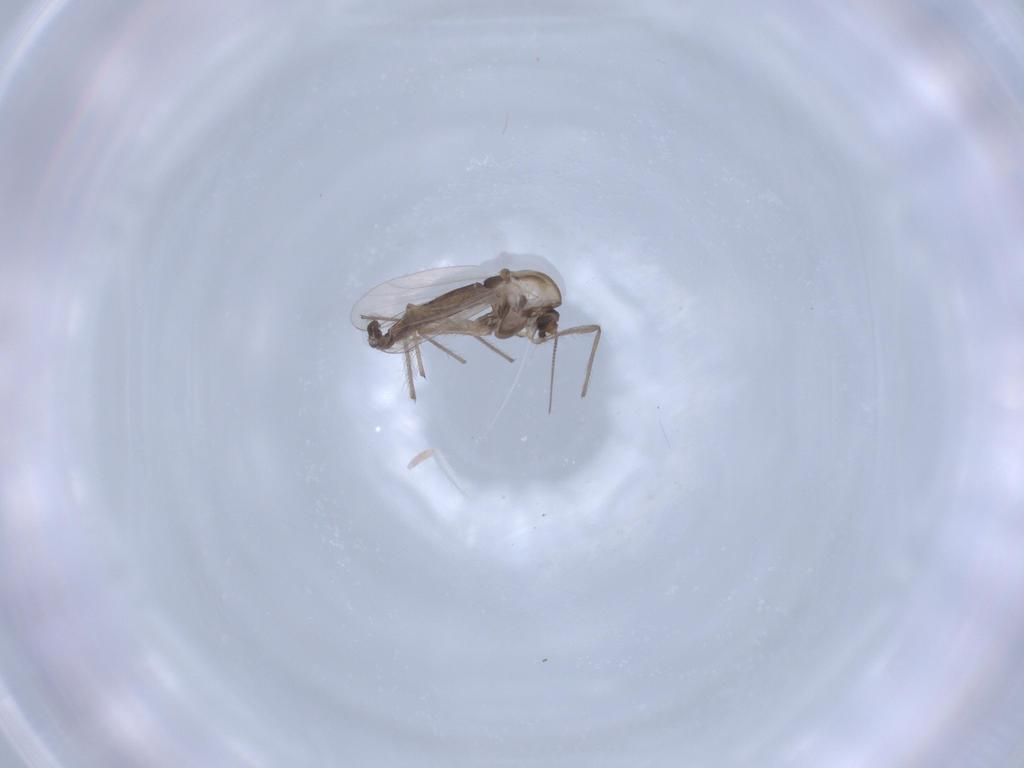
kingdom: Animalia
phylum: Arthropoda
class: Insecta
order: Diptera
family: Chironomidae
